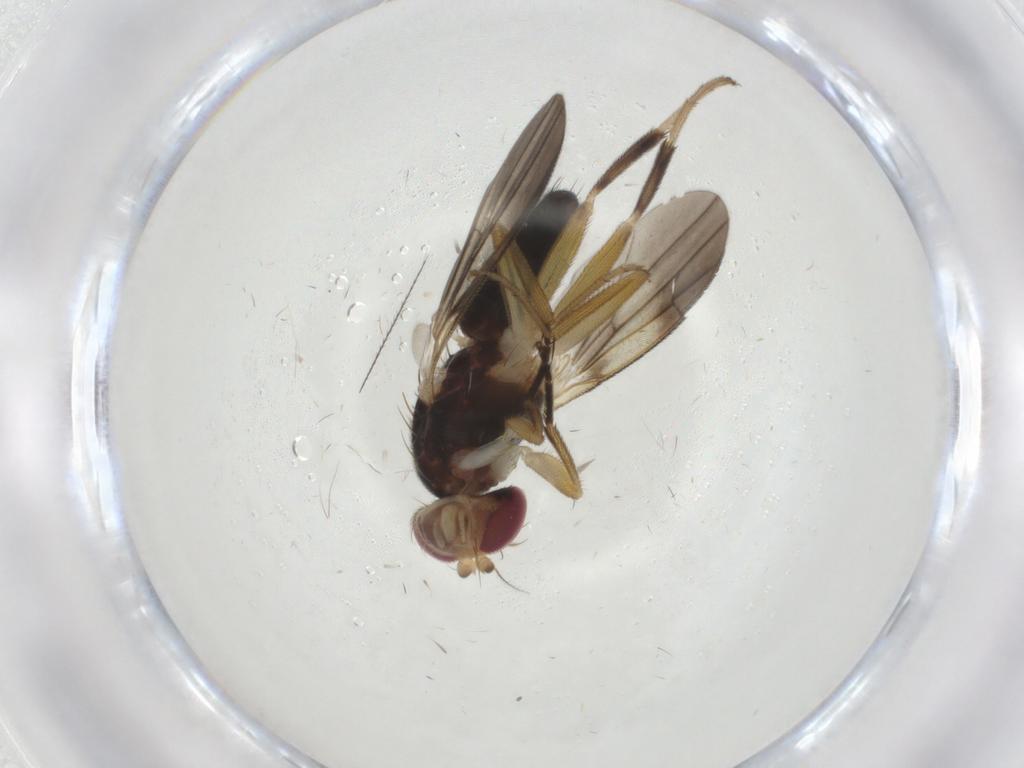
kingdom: Animalia
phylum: Arthropoda
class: Insecta
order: Diptera
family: Clusiidae
